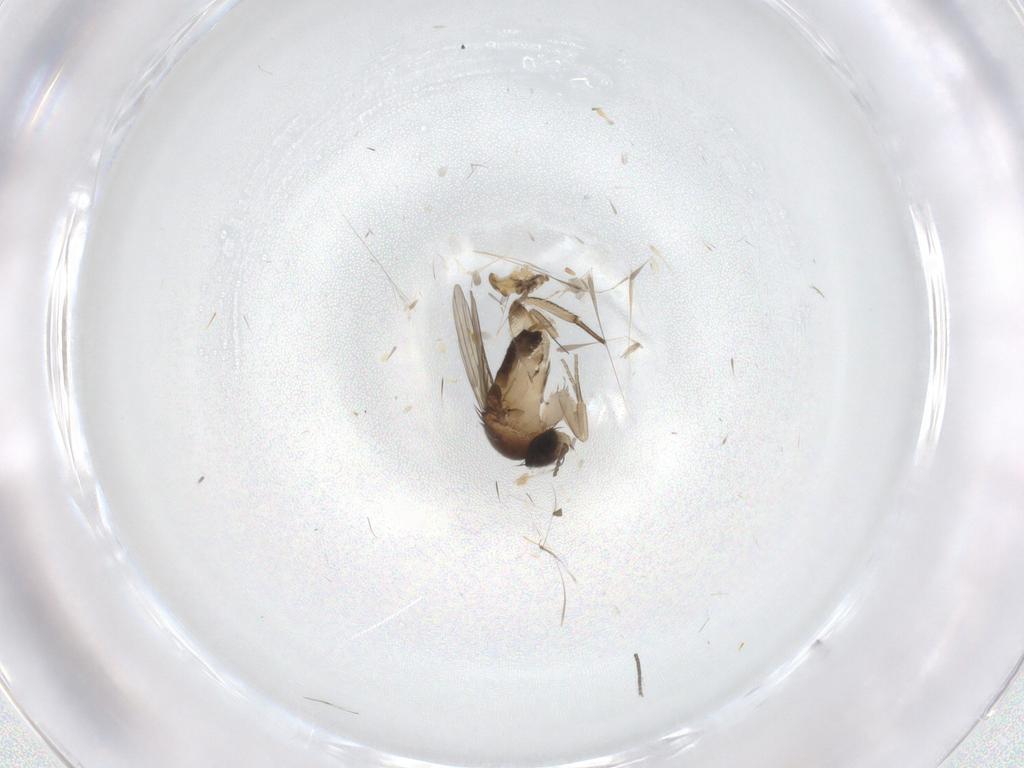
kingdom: Animalia
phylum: Arthropoda
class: Insecta
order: Diptera
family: Phoridae
